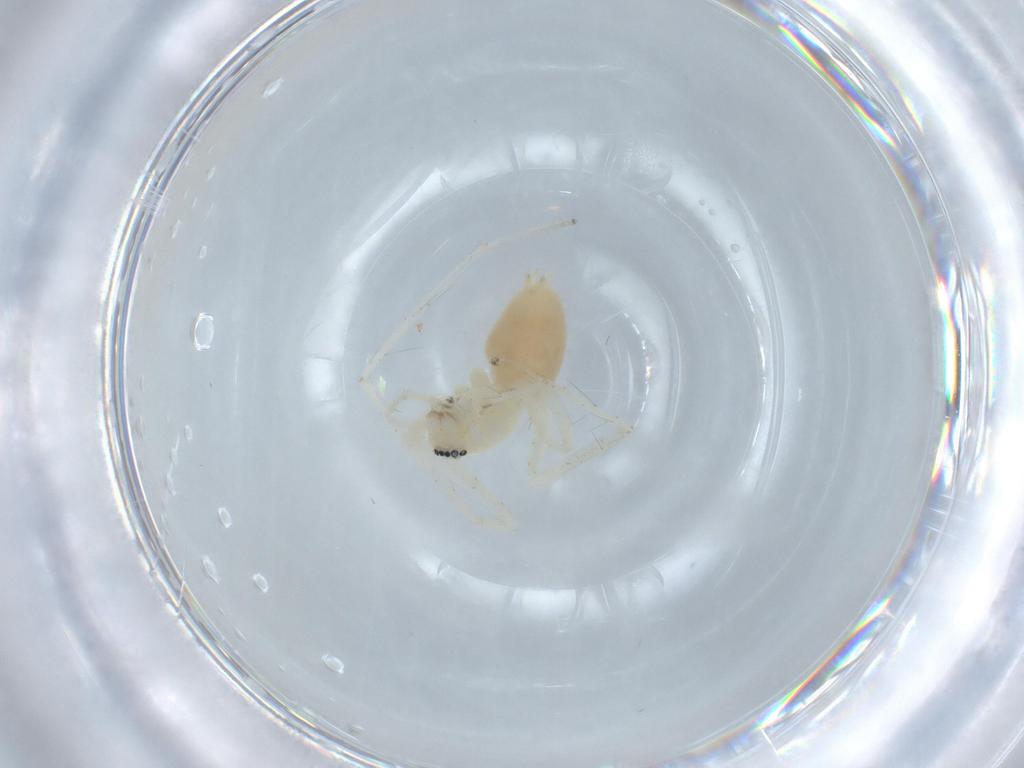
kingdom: Animalia
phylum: Arthropoda
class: Arachnida
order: Araneae
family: Anyphaenidae
